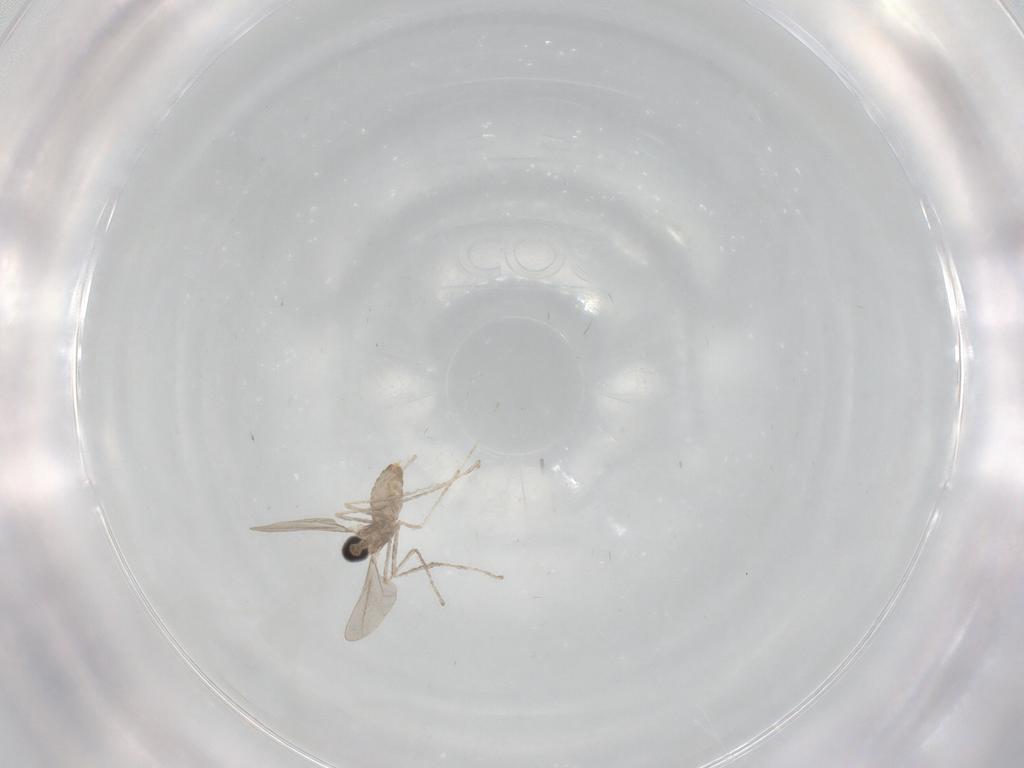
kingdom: Animalia
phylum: Arthropoda
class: Insecta
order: Diptera
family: Cecidomyiidae
